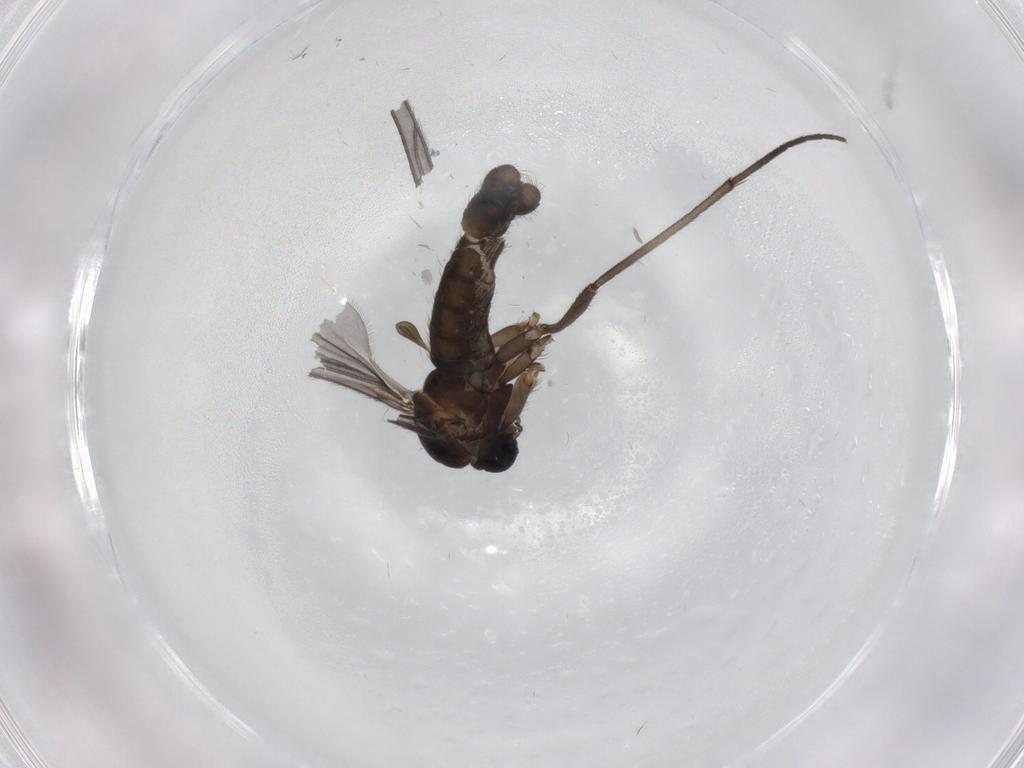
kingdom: Animalia
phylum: Arthropoda
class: Insecta
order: Diptera
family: Sciaridae
